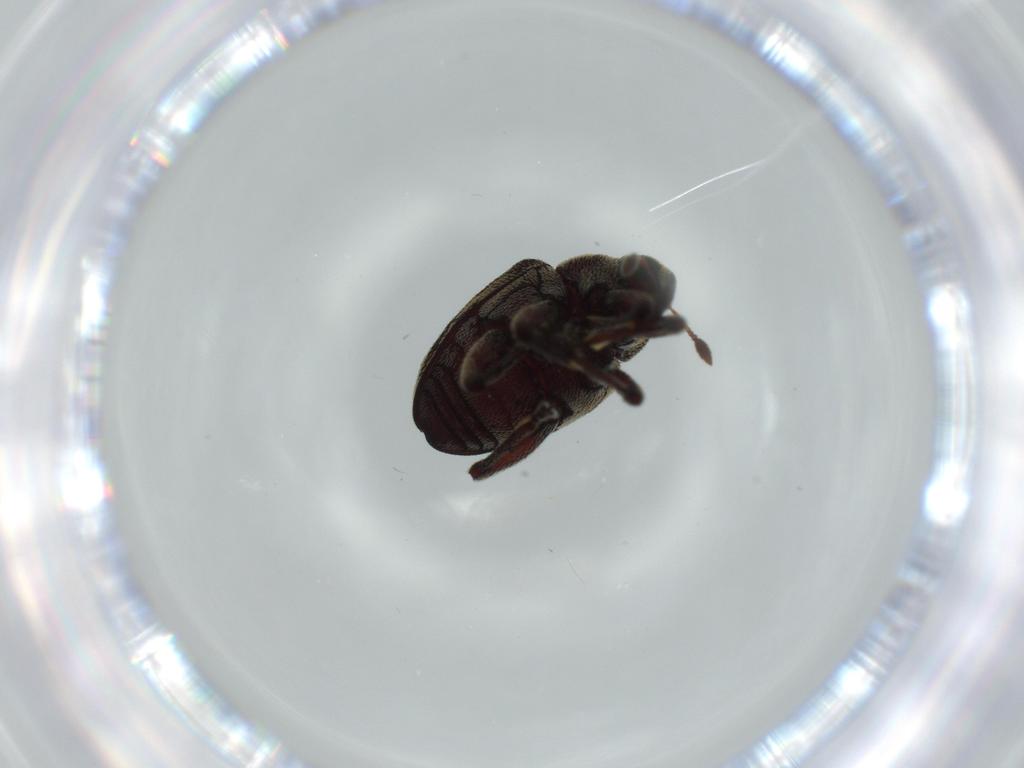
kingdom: Animalia
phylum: Arthropoda
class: Insecta
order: Coleoptera
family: Curculionidae
